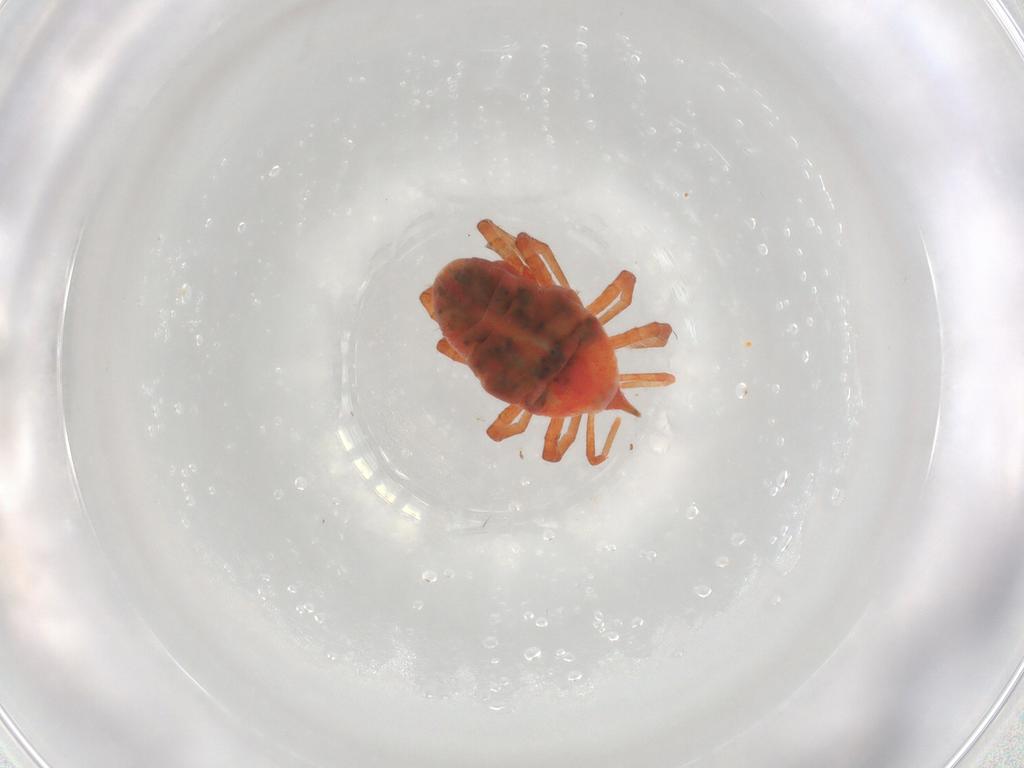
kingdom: Animalia
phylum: Arthropoda
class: Arachnida
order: Trombidiformes
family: Bdellidae
